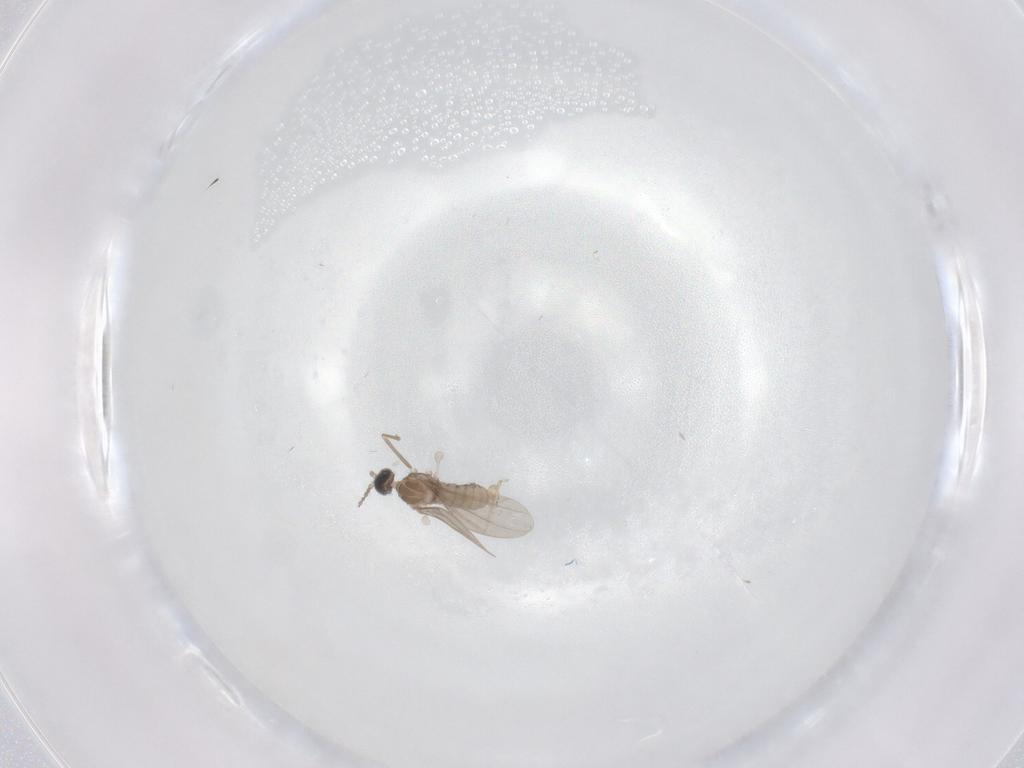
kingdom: Animalia
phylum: Arthropoda
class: Insecta
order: Diptera
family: Cecidomyiidae
